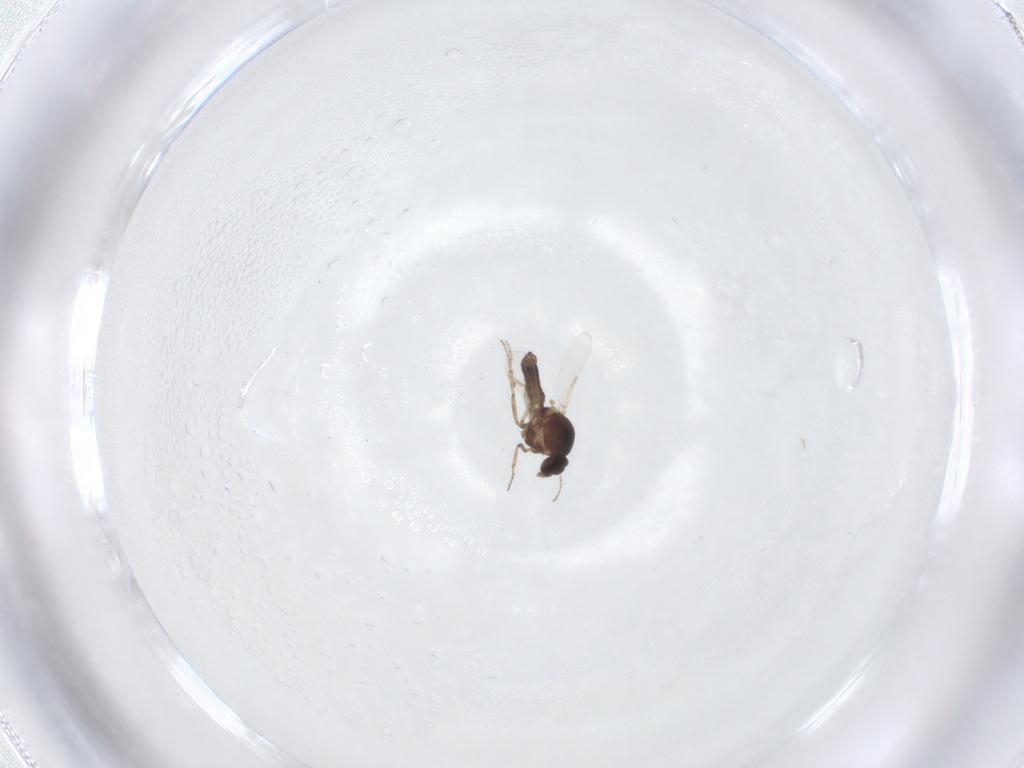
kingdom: Animalia
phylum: Arthropoda
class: Insecta
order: Diptera
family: Ceratopogonidae
